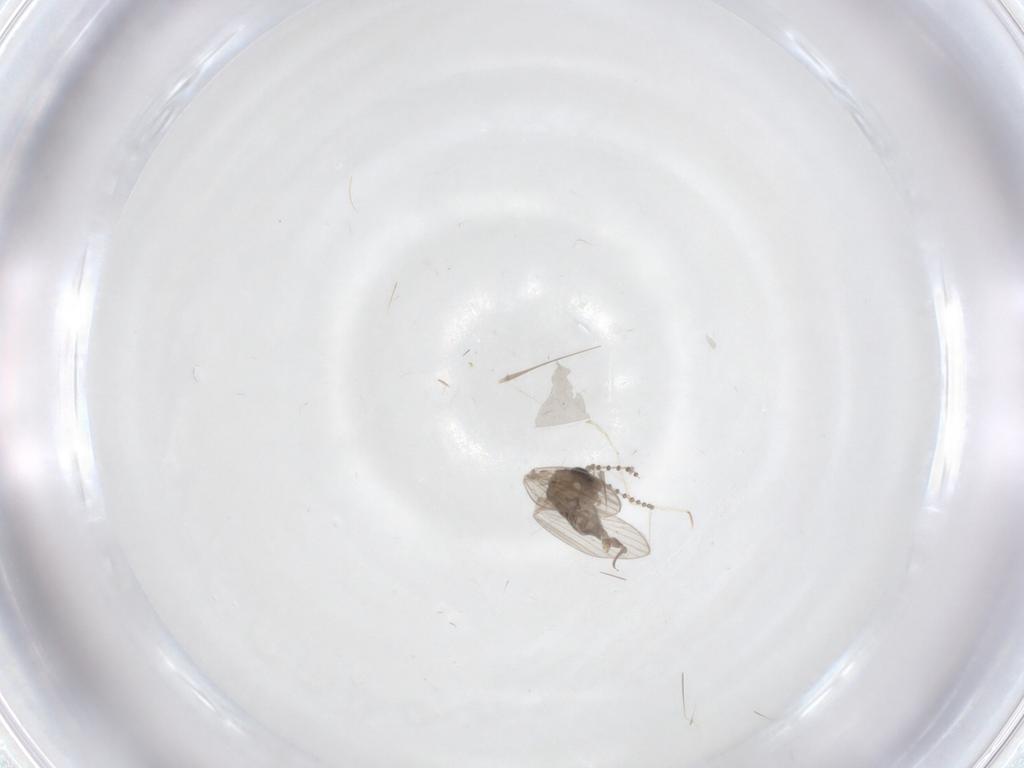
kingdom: Animalia
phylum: Arthropoda
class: Insecta
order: Diptera
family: Psychodidae
